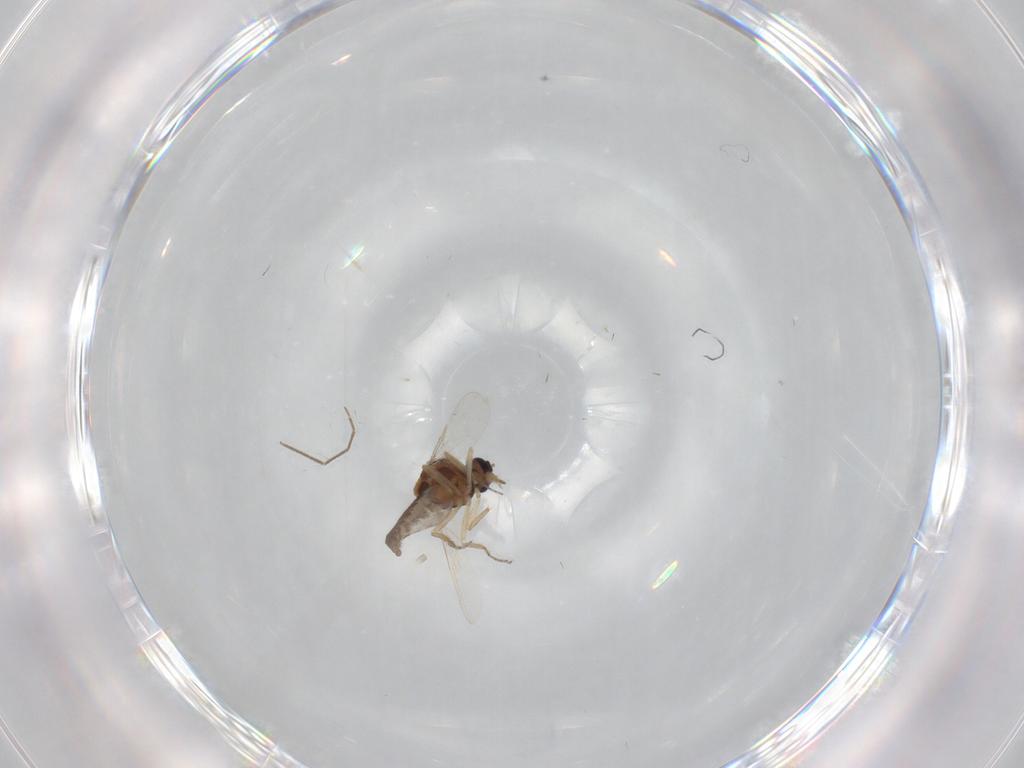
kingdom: Animalia
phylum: Arthropoda
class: Insecta
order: Diptera
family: Ceratopogonidae
